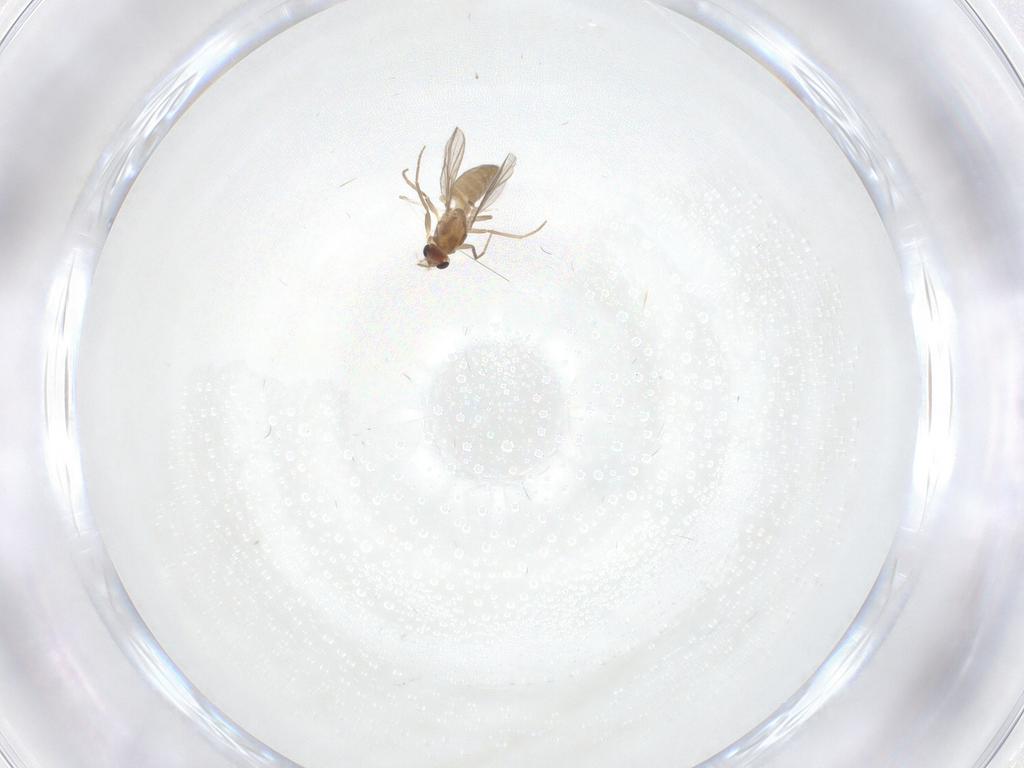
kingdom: Animalia
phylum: Arthropoda
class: Insecta
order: Diptera
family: Chironomidae
